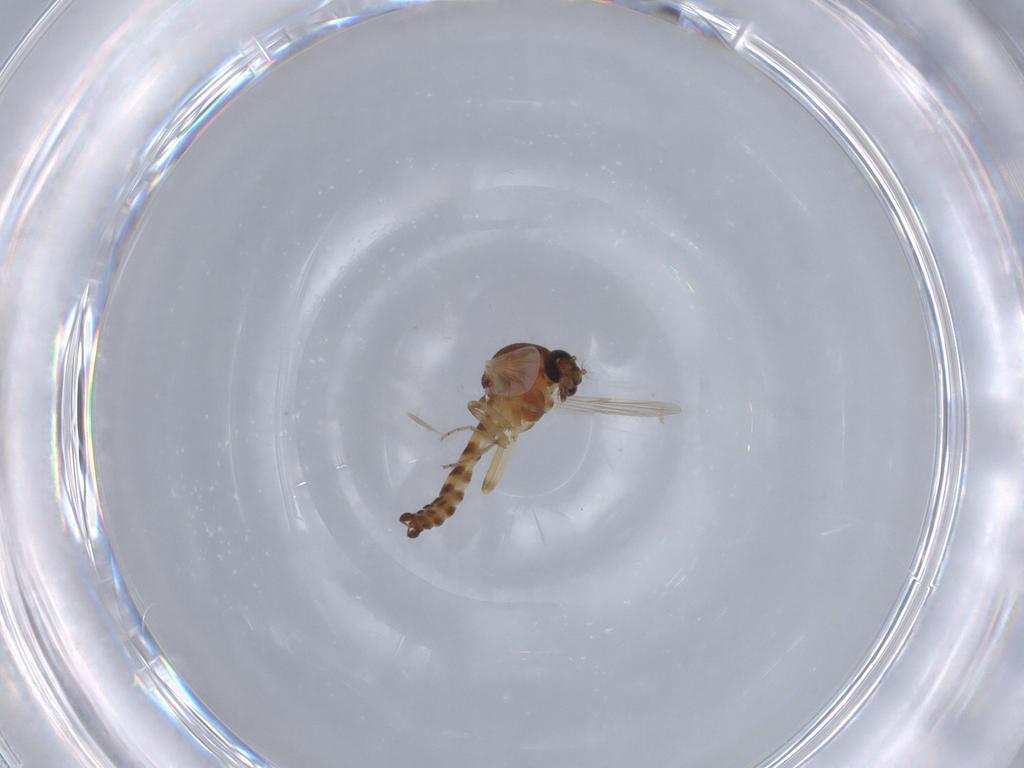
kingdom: Animalia
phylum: Arthropoda
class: Insecta
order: Diptera
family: Ceratopogonidae
